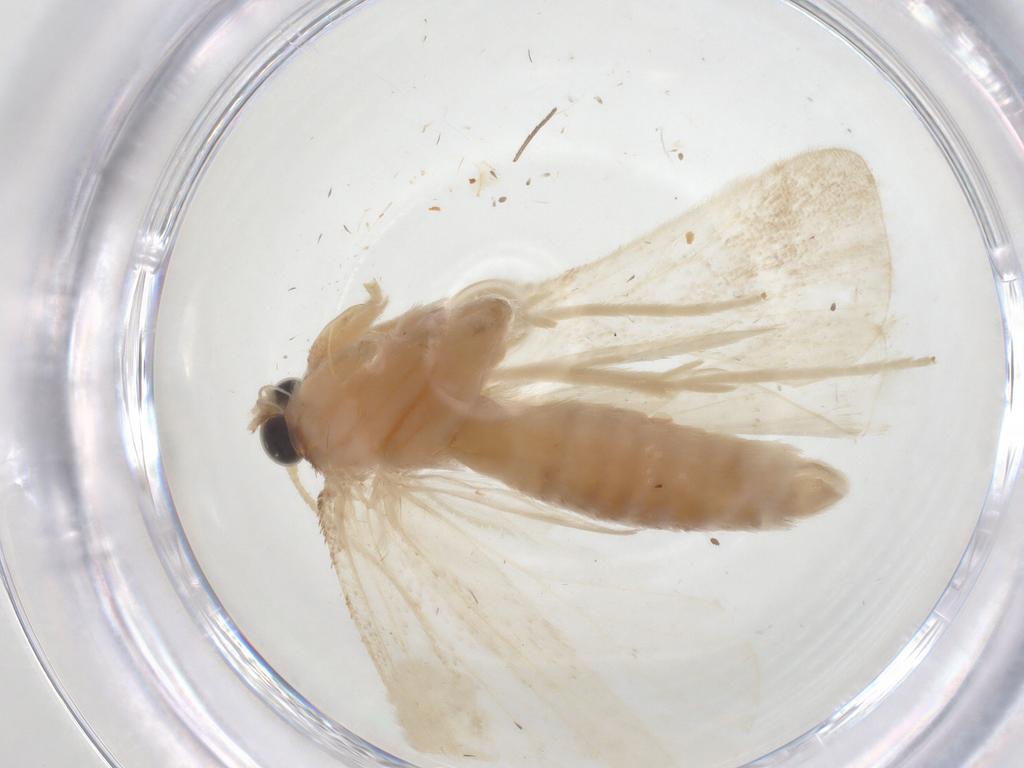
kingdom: Animalia
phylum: Arthropoda
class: Insecta
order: Lepidoptera
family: Crambidae
